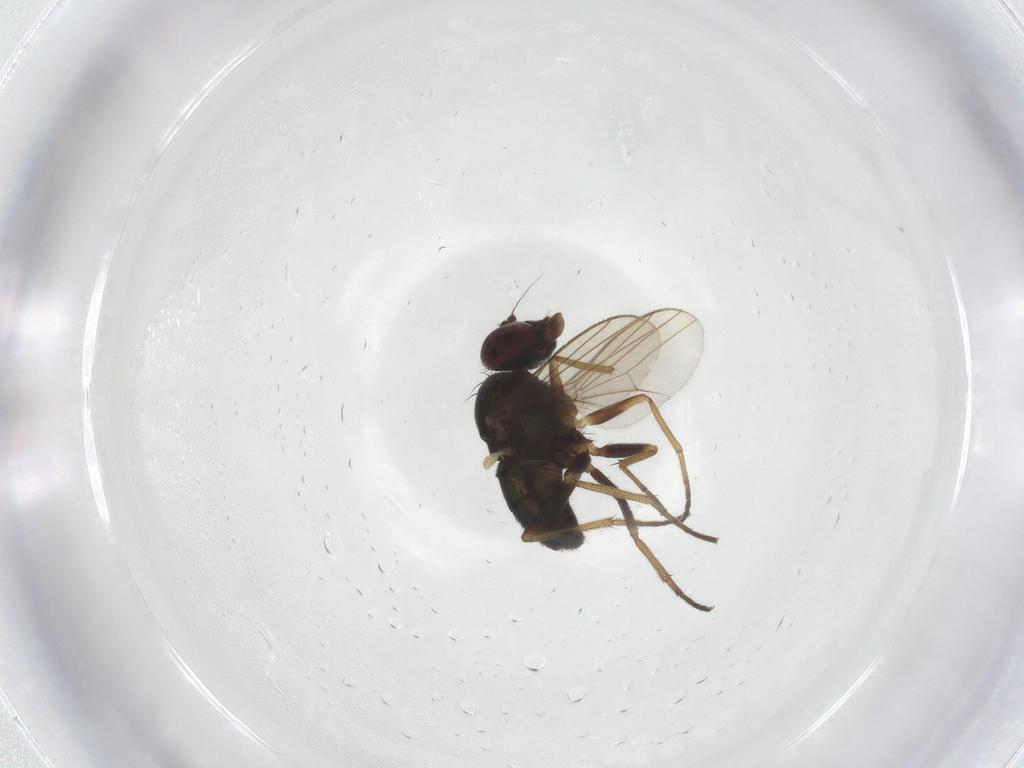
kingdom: Animalia
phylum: Arthropoda
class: Insecta
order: Diptera
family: Dolichopodidae
